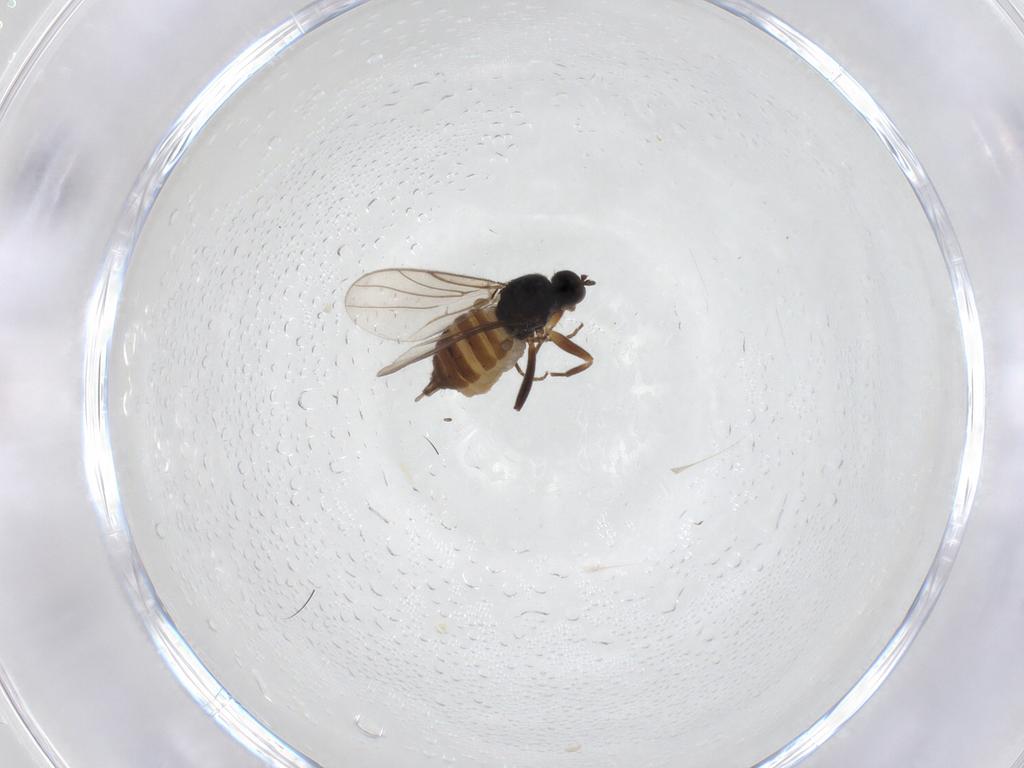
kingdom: Animalia
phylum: Arthropoda
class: Insecta
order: Diptera
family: Hybotidae
